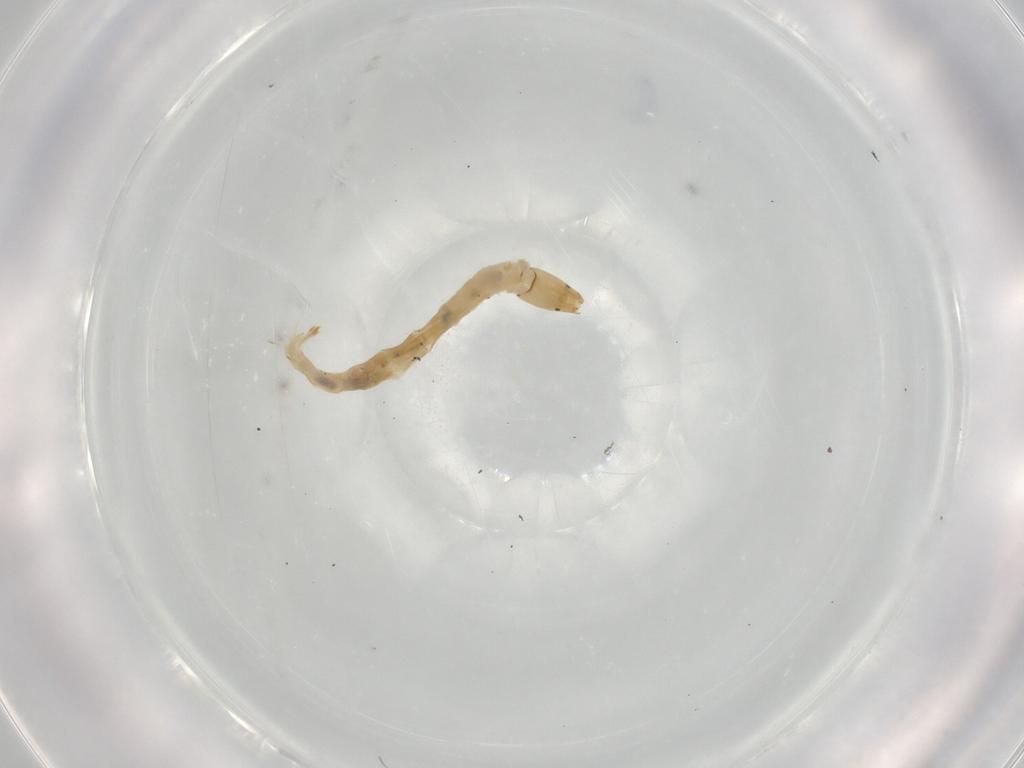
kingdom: Animalia
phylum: Arthropoda
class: Insecta
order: Diptera
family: Chironomidae
